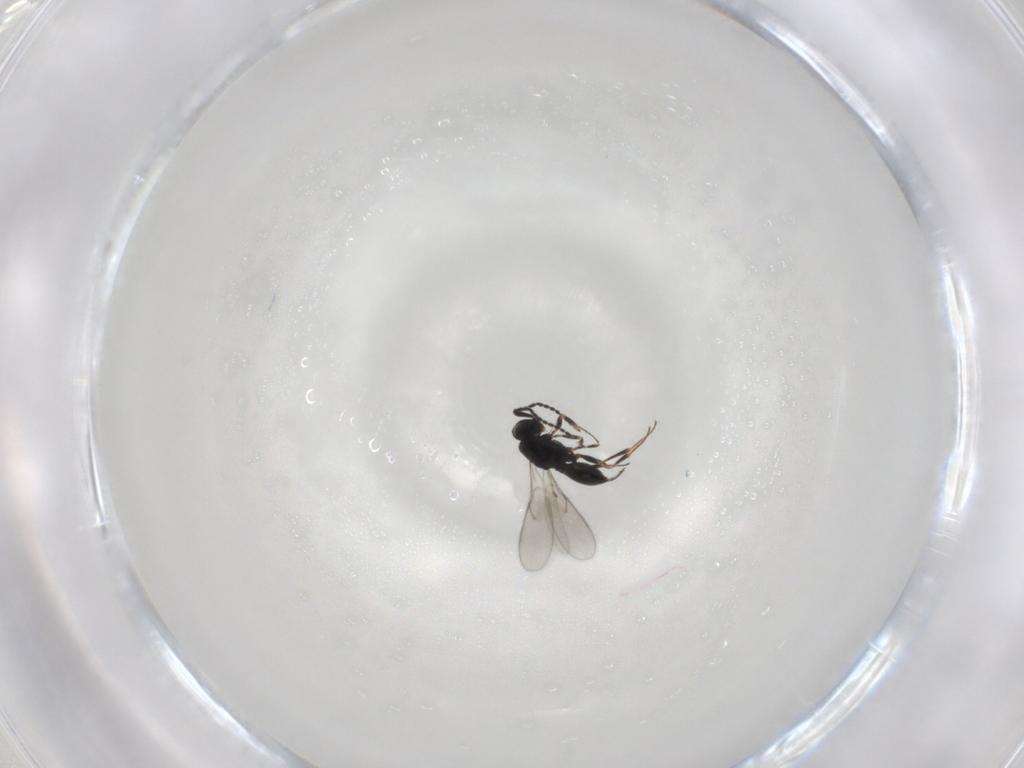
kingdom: Animalia
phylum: Arthropoda
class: Insecta
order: Hymenoptera
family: Scelionidae
